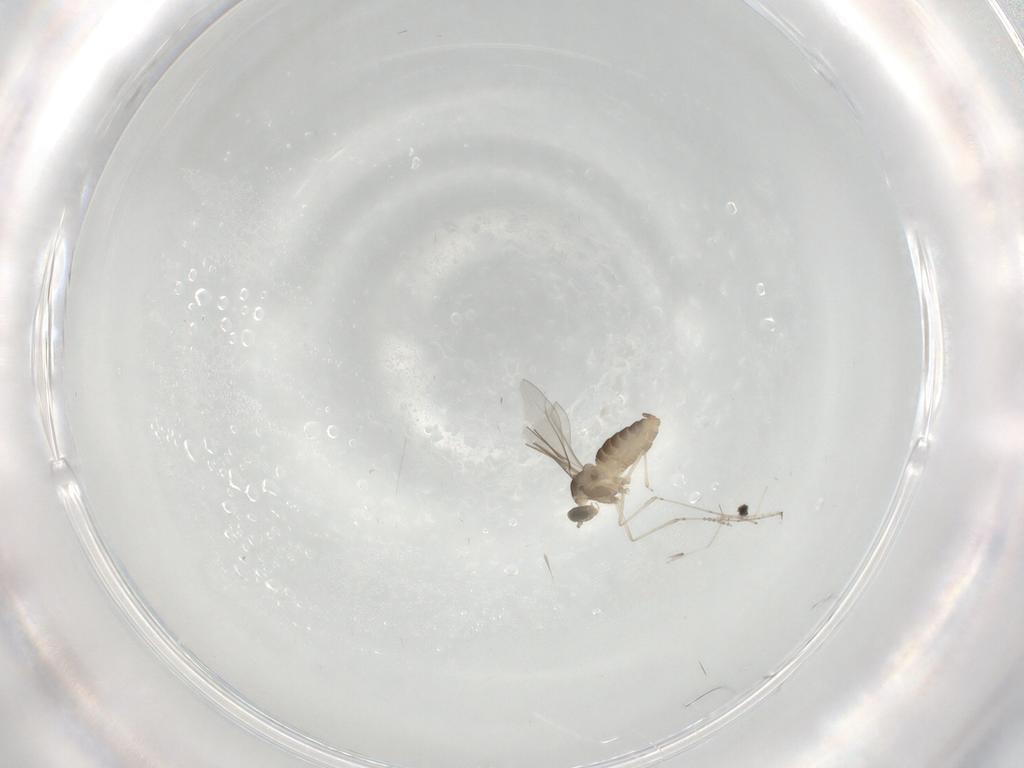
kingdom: Animalia
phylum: Arthropoda
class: Insecta
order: Diptera
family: Cecidomyiidae
